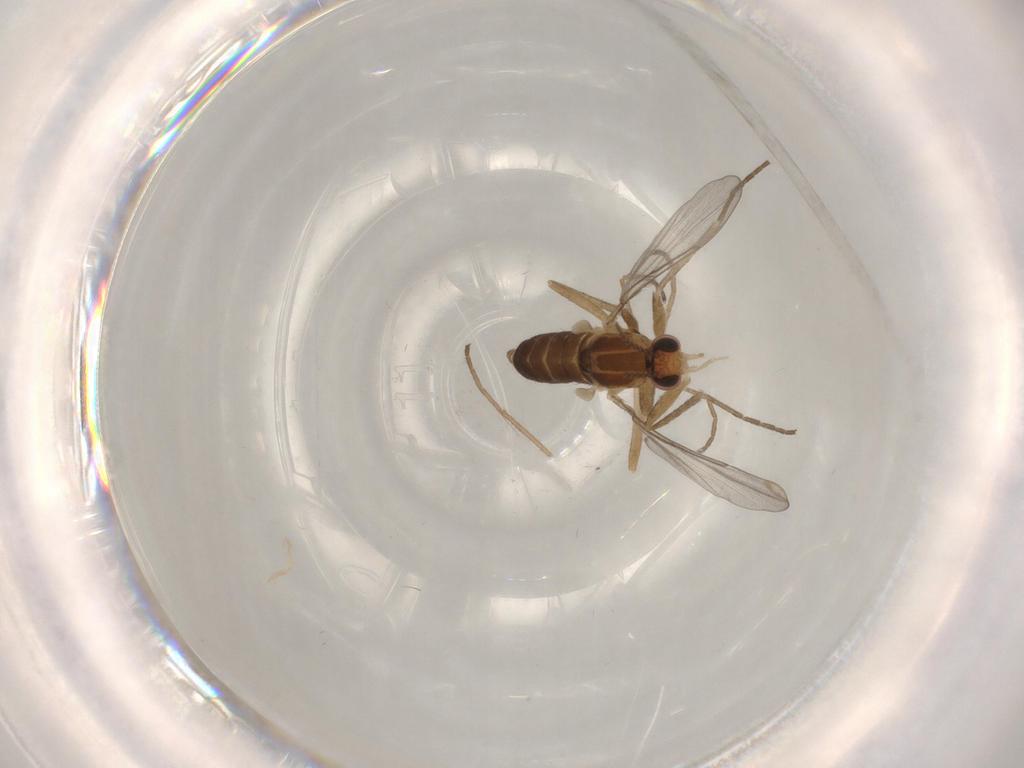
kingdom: Animalia
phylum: Arthropoda
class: Insecta
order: Diptera
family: Cecidomyiidae
